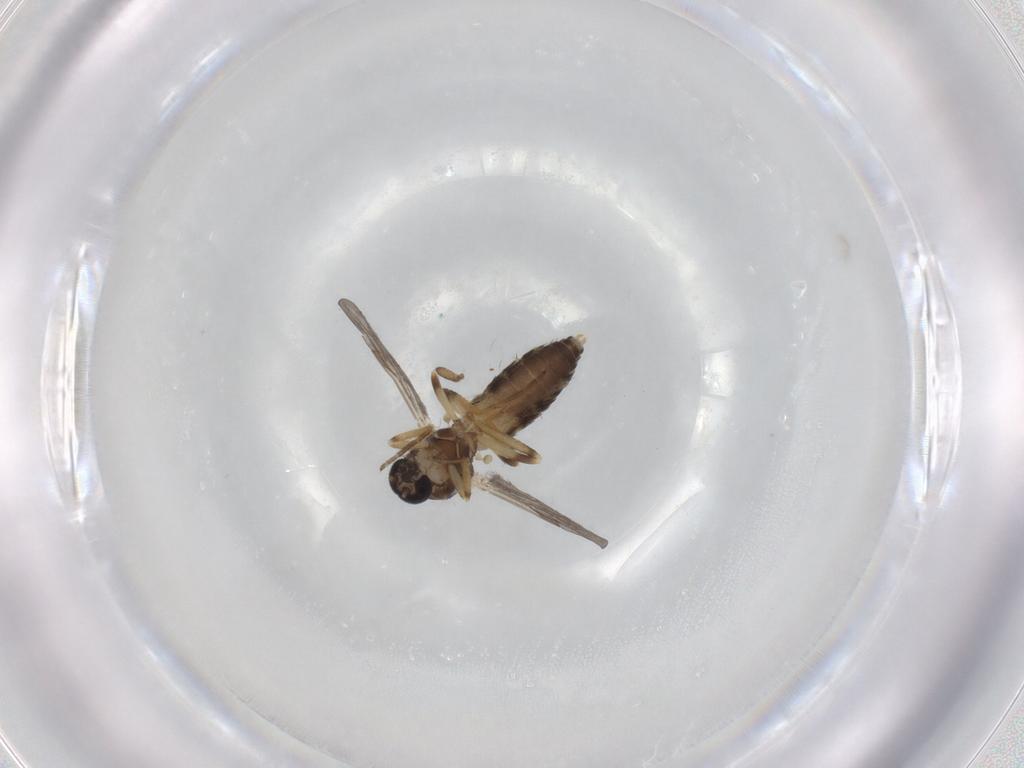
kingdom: Animalia
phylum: Arthropoda
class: Insecta
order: Diptera
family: Ceratopogonidae
